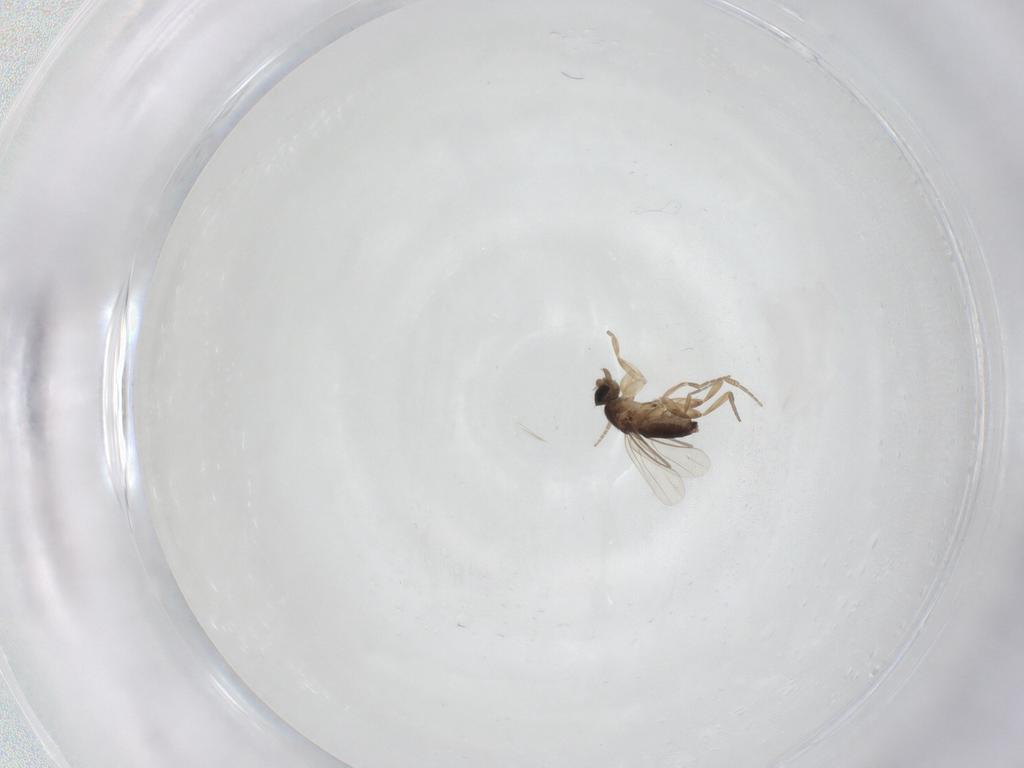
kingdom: Animalia
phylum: Arthropoda
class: Insecta
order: Diptera
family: Phoridae
